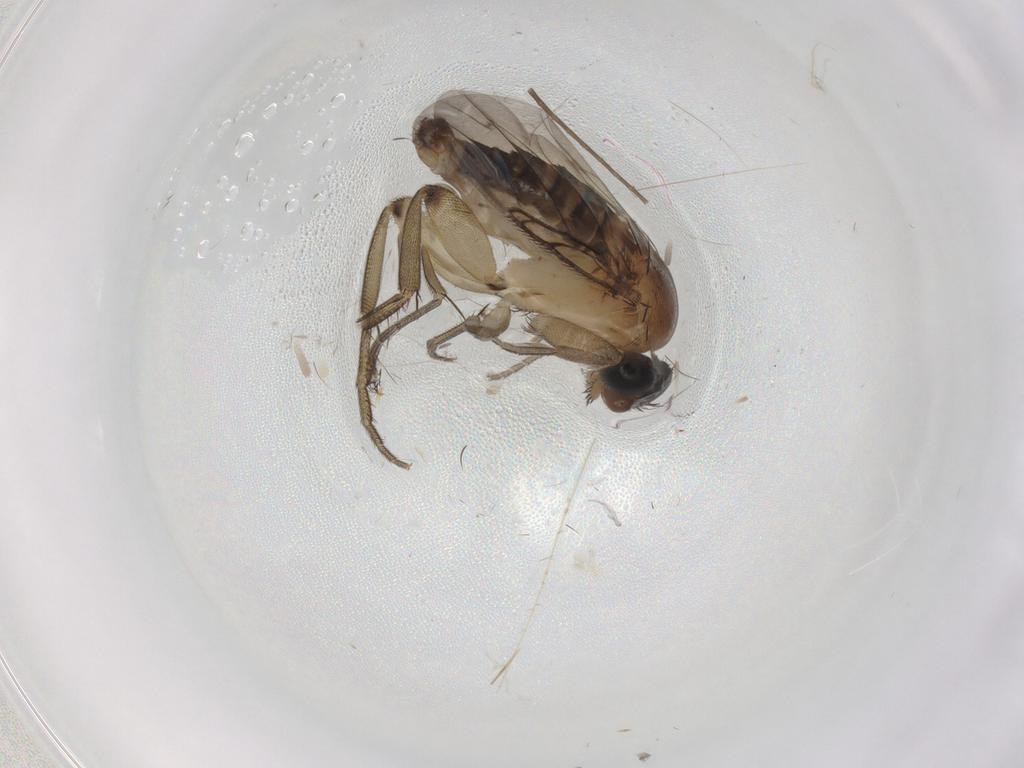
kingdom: Animalia
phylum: Arthropoda
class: Insecta
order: Diptera
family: Phoridae
